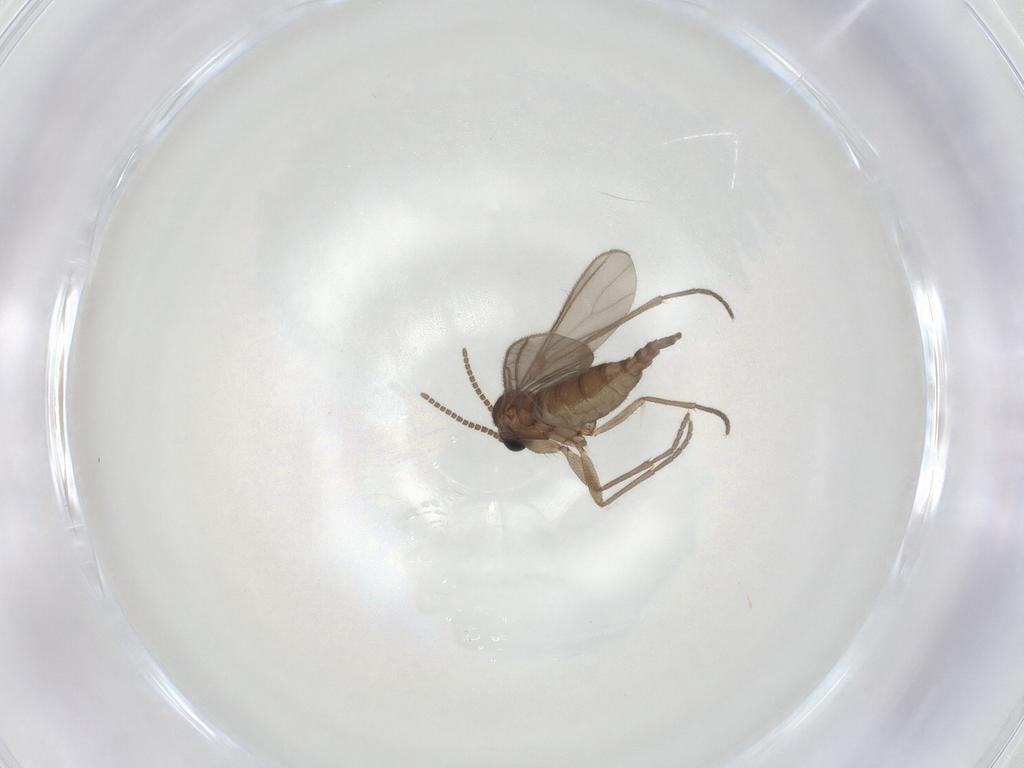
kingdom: Animalia
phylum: Arthropoda
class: Insecta
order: Diptera
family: Sciaridae
